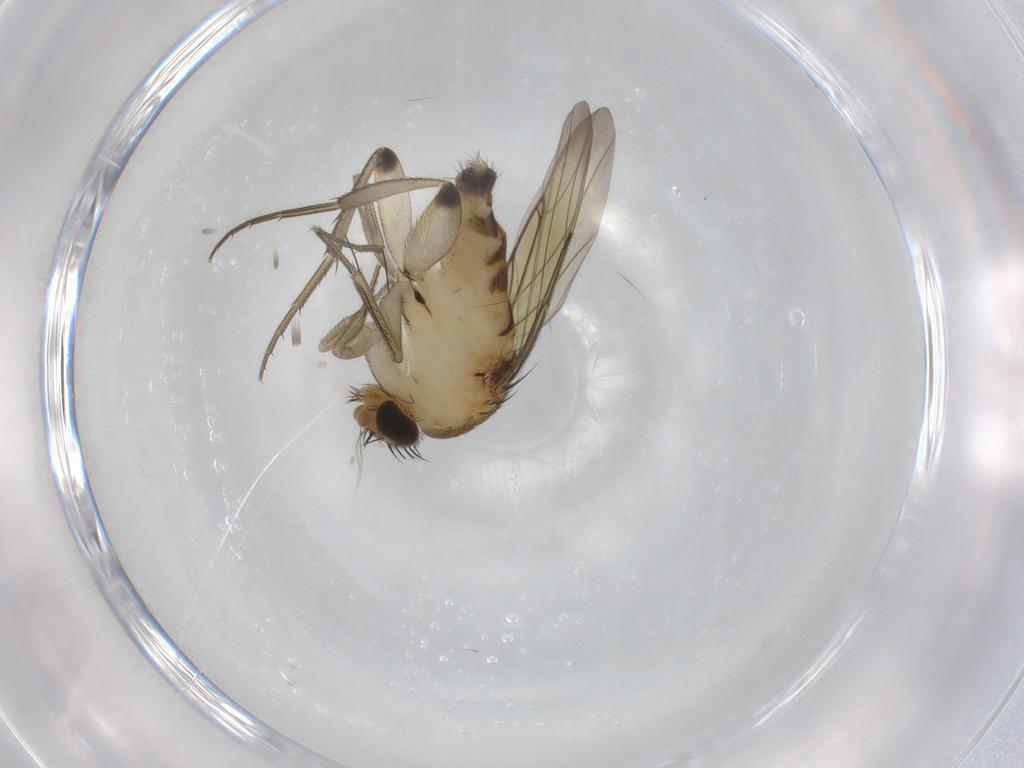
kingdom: Animalia
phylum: Arthropoda
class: Insecta
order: Diptera
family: Phoridae
